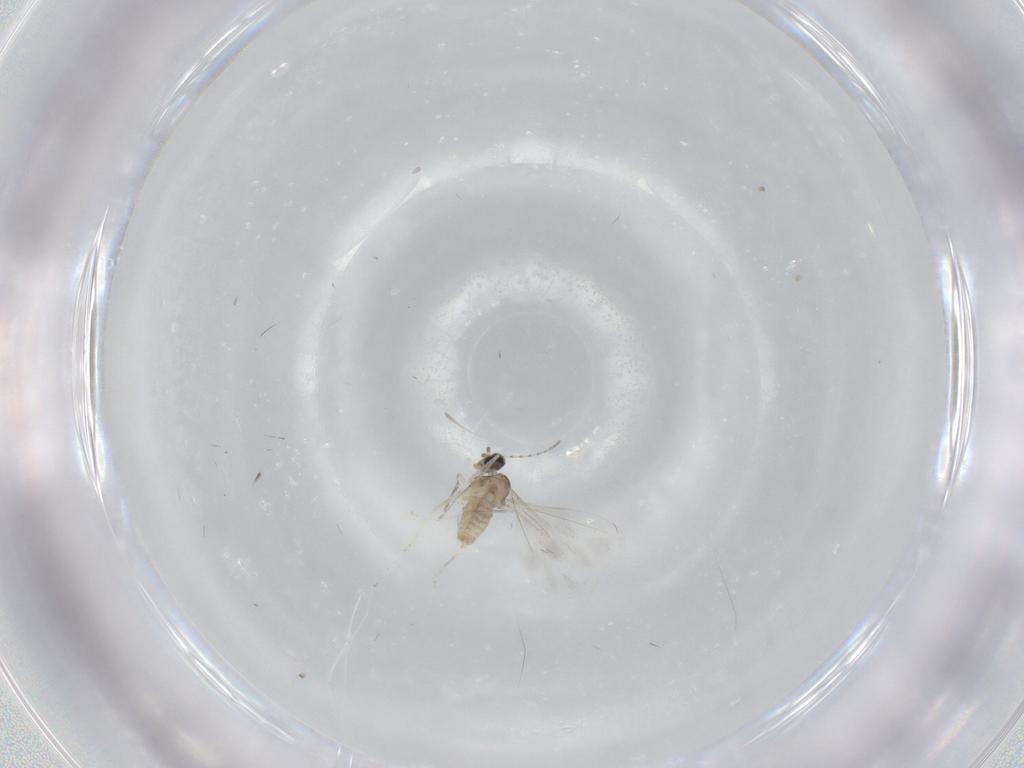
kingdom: Animalia
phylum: Arthropoda
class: Insecta
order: Diptera
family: Cecidomyiidae
